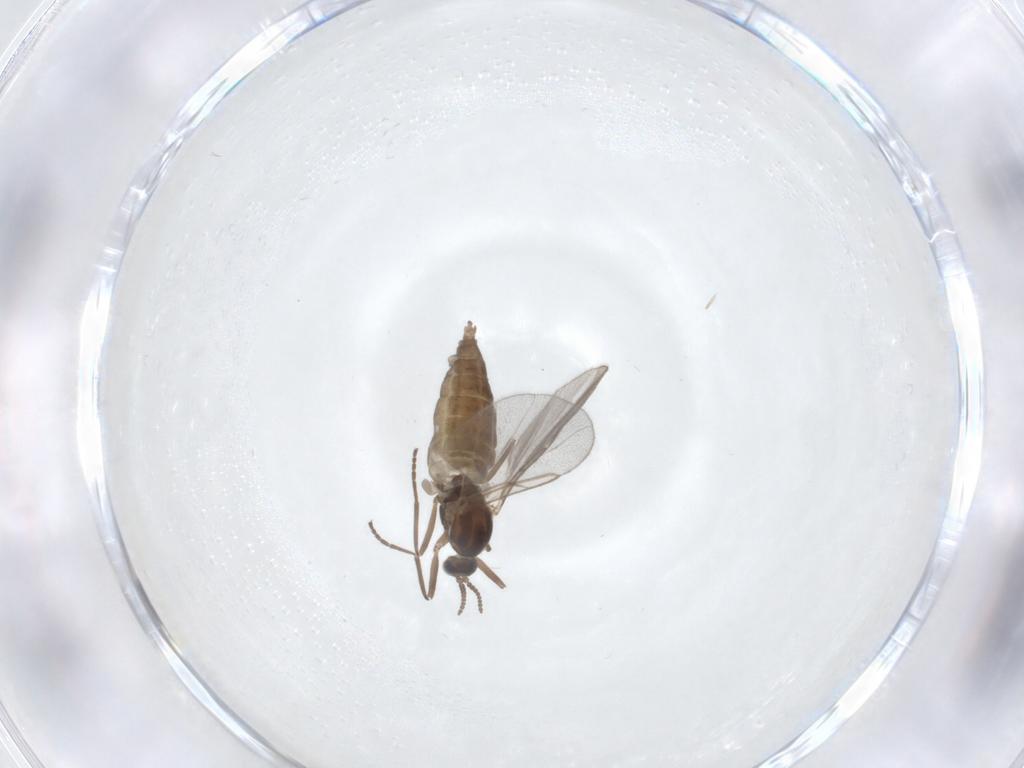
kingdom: Animalia
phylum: Arthropoda
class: Insecta
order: Diptera
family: Cecidomyiidae
